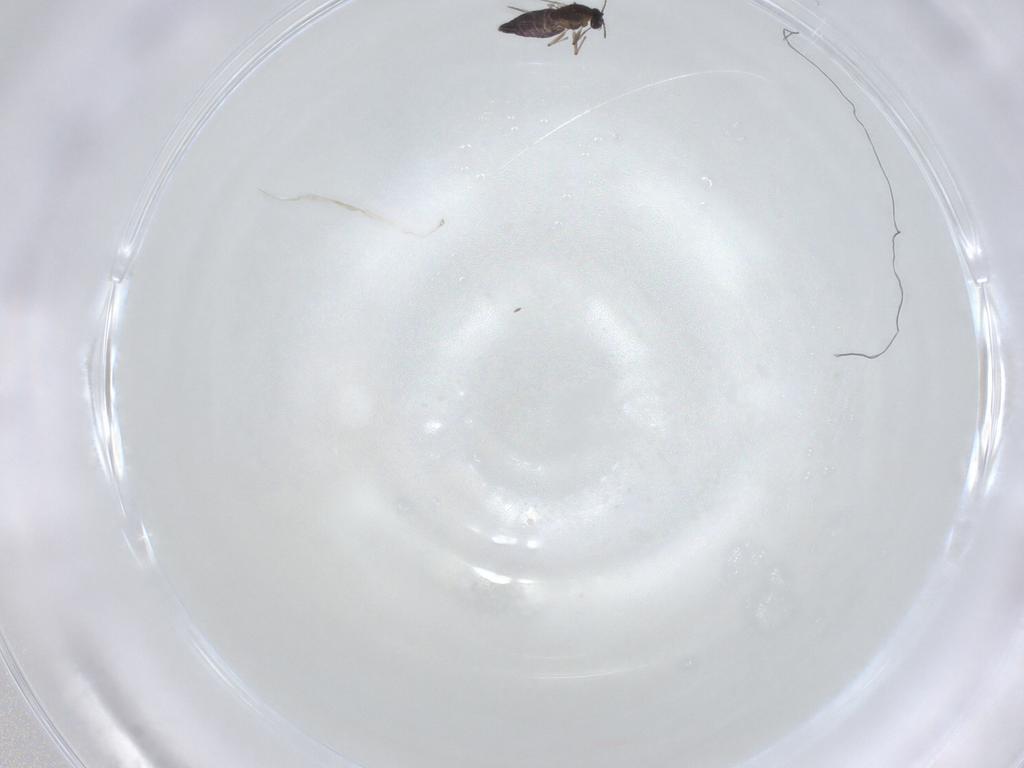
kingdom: Animalia
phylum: Arthropoda
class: Insecta
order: Diptera
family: Chironomidae
